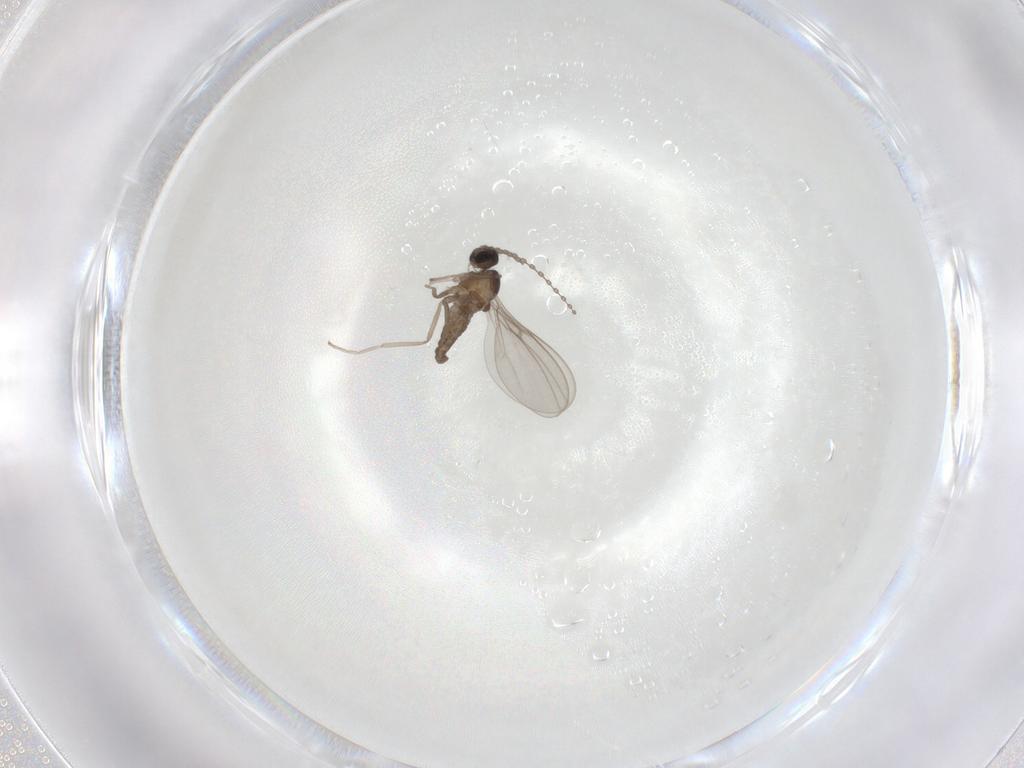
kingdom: Animalia
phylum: Arthropoda
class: Insecta
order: Diptera
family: Cecidomyiidae
